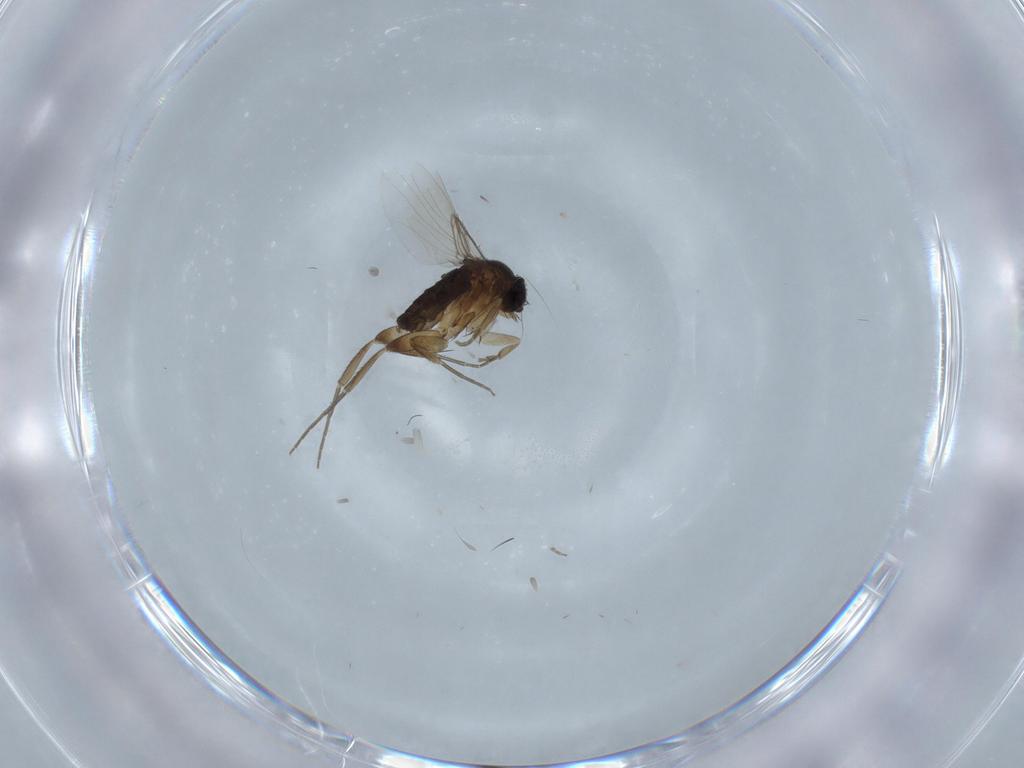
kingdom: Animalia
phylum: Arthropoda
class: Insecta
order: Diptera
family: Phoridae
